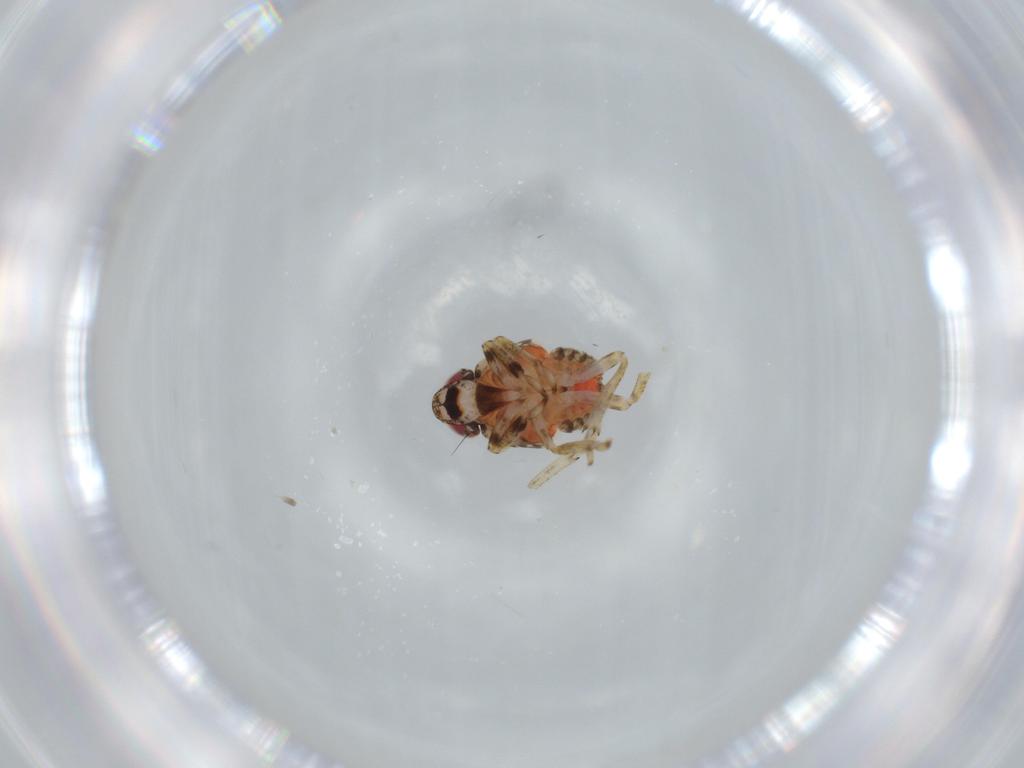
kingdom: Animalia
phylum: Arthropoda
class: Insecta
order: Hemiptera
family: Issidae
